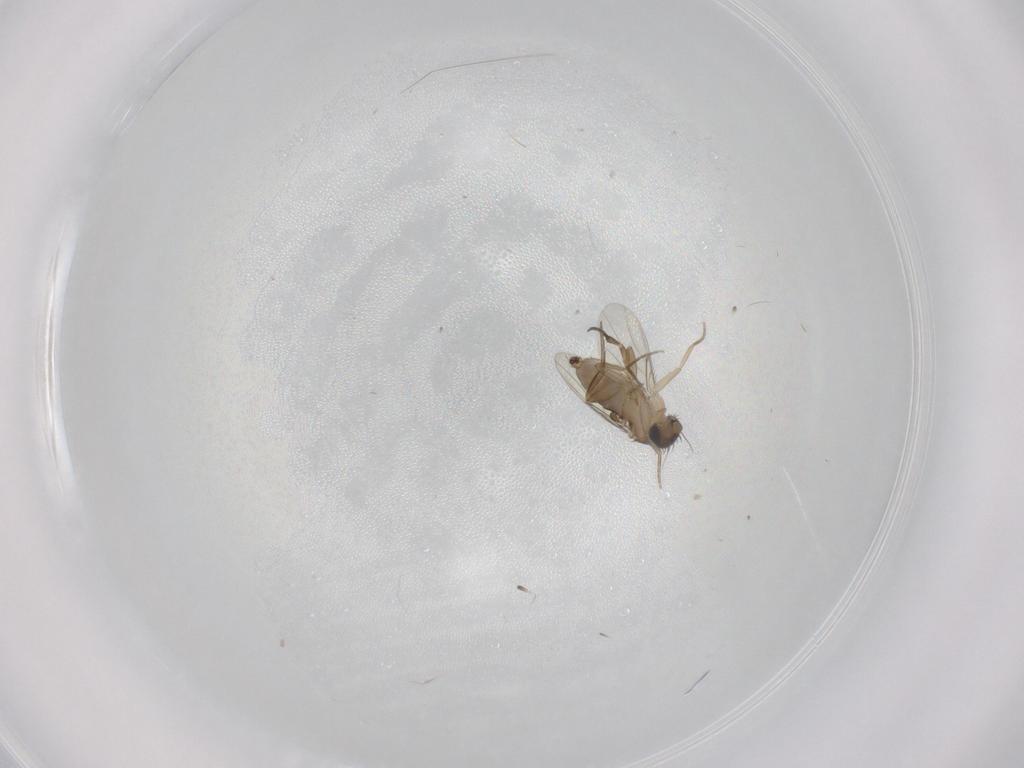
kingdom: Animalia
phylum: Arthropoda
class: Insecta
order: Diptera
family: Phoridae
